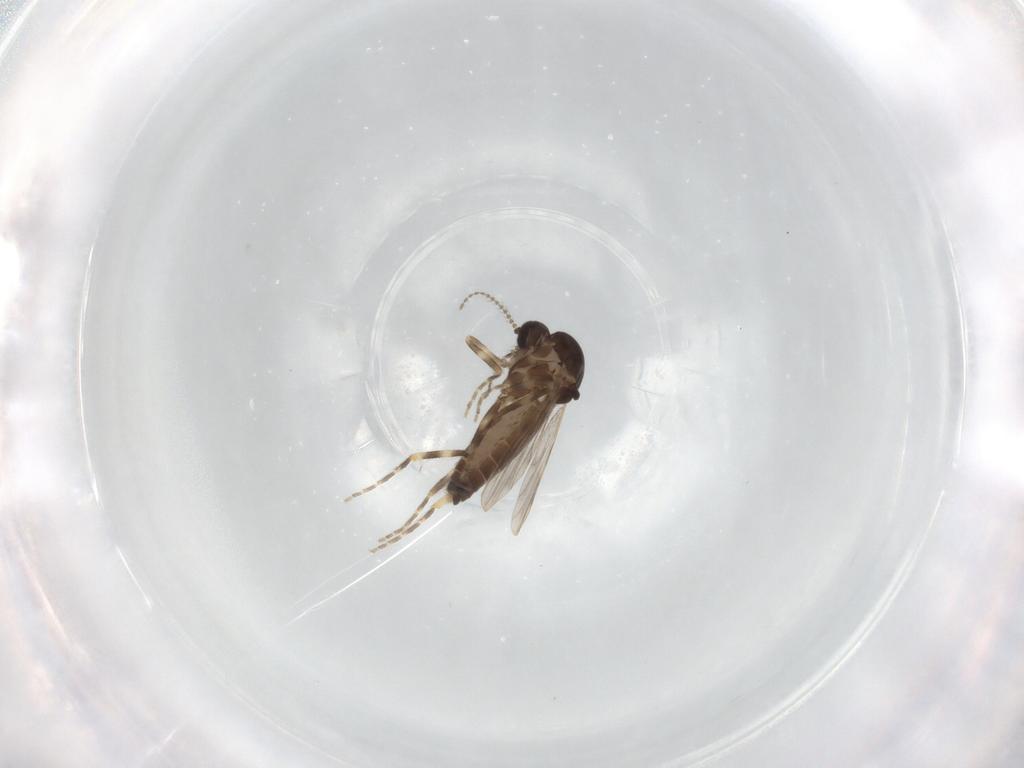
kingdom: Animalia
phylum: Arthropoda
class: Insecta
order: Diptera
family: Ceratopogonidae
